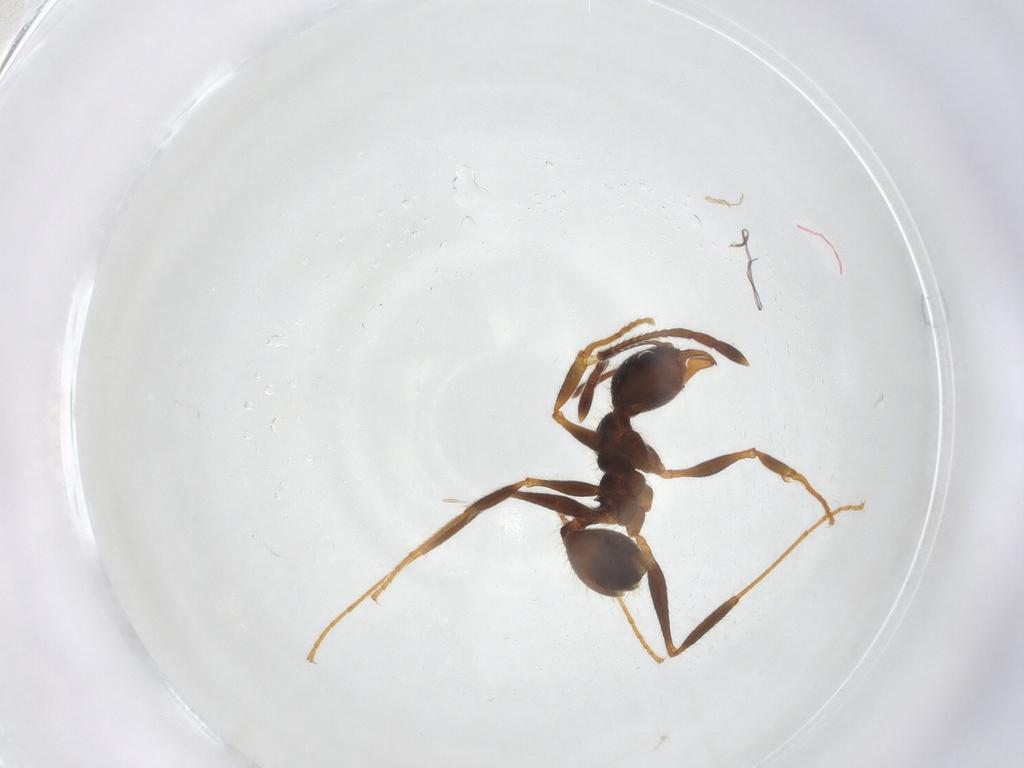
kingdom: Animalia
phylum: Arthropoda
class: Insecta
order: Hymenoptera
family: Formicidae
